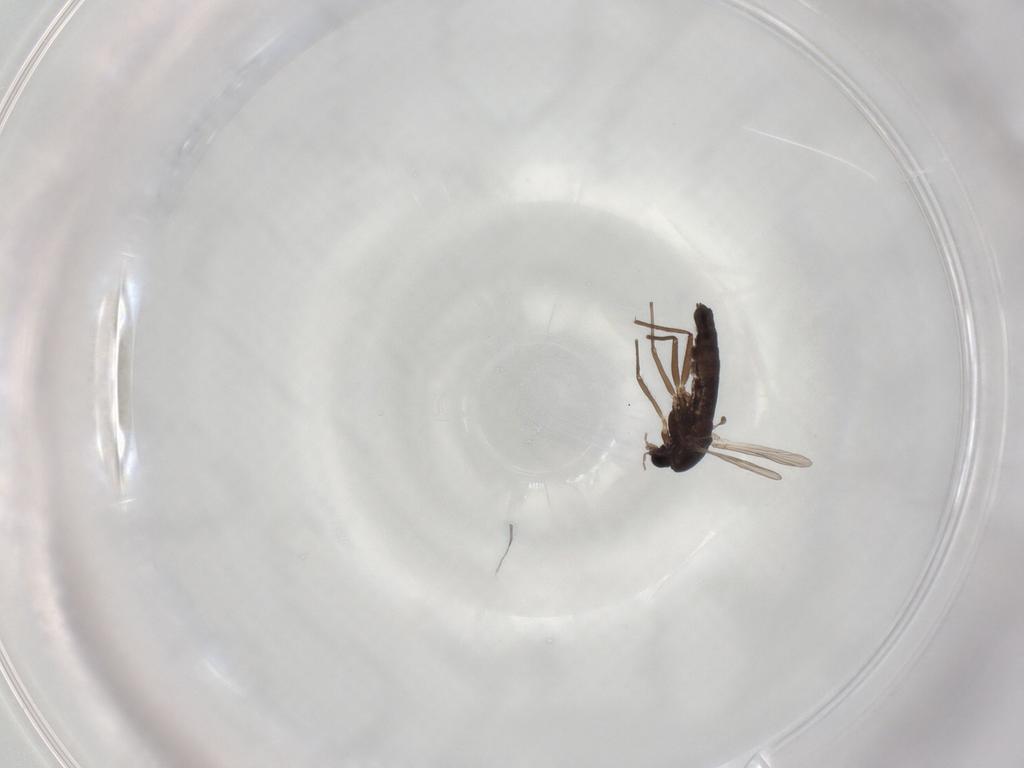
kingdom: Animalia
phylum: Arthropoda
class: Insecta
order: Diptera
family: Chironomidae
